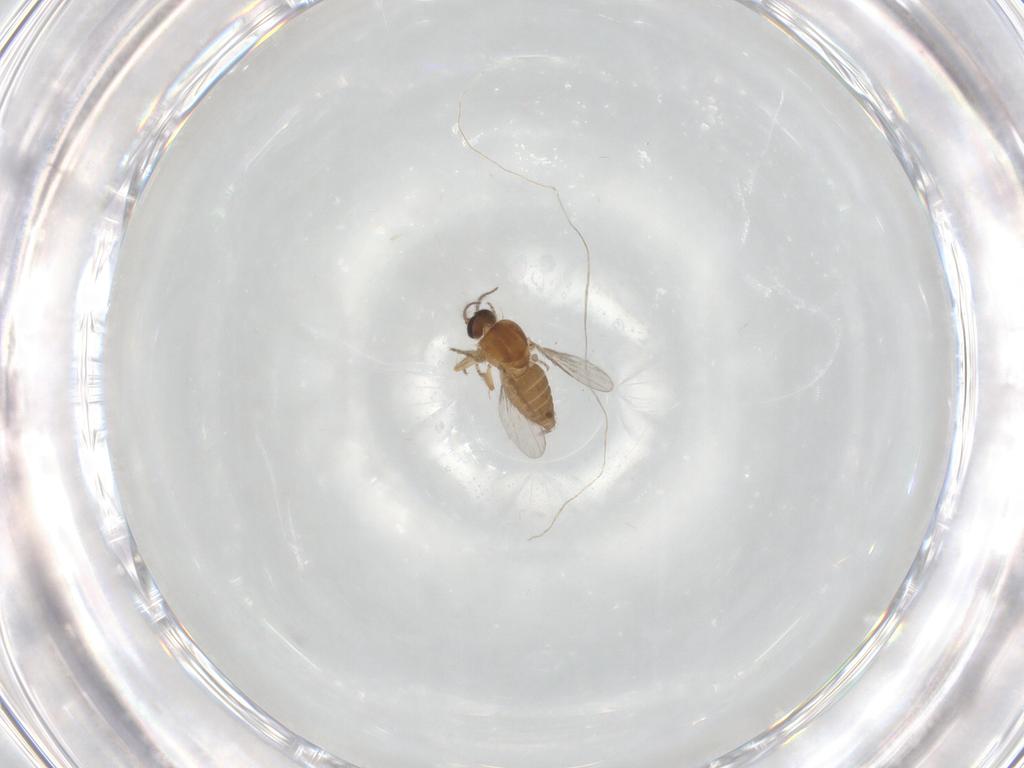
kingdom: Animalia
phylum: Arthropoda
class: Insecta
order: Diptera
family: Ceratopogonidae
